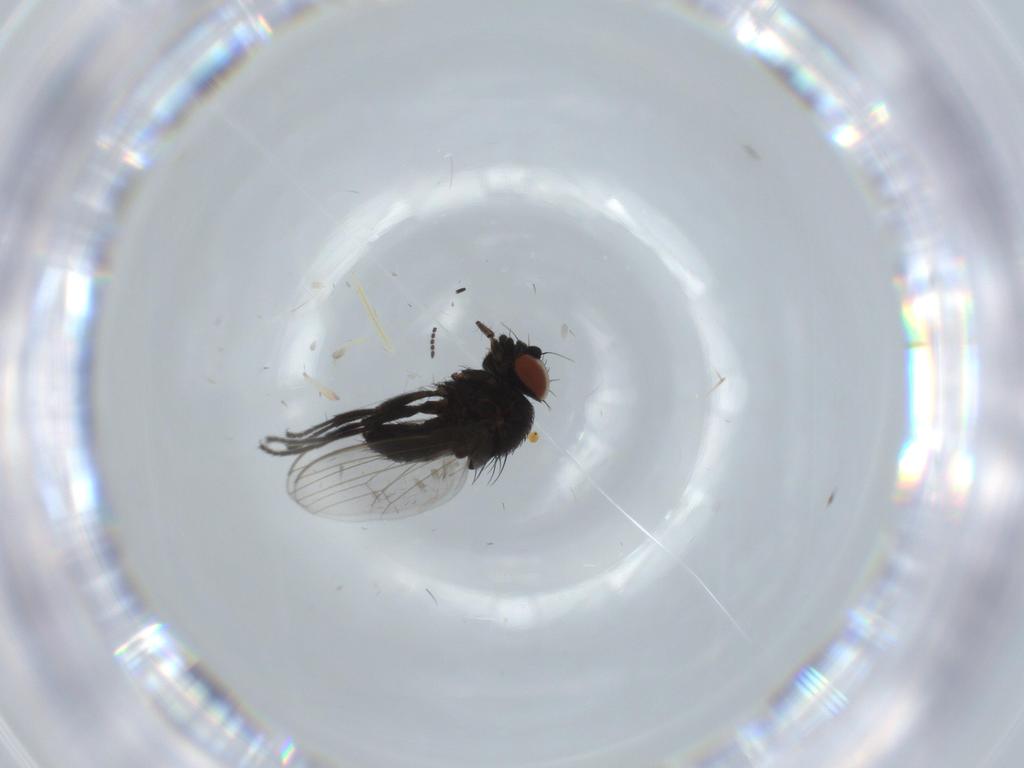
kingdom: Animalia
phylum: Arthropoda
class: Insecta
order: Diptera
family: Milichiidae
